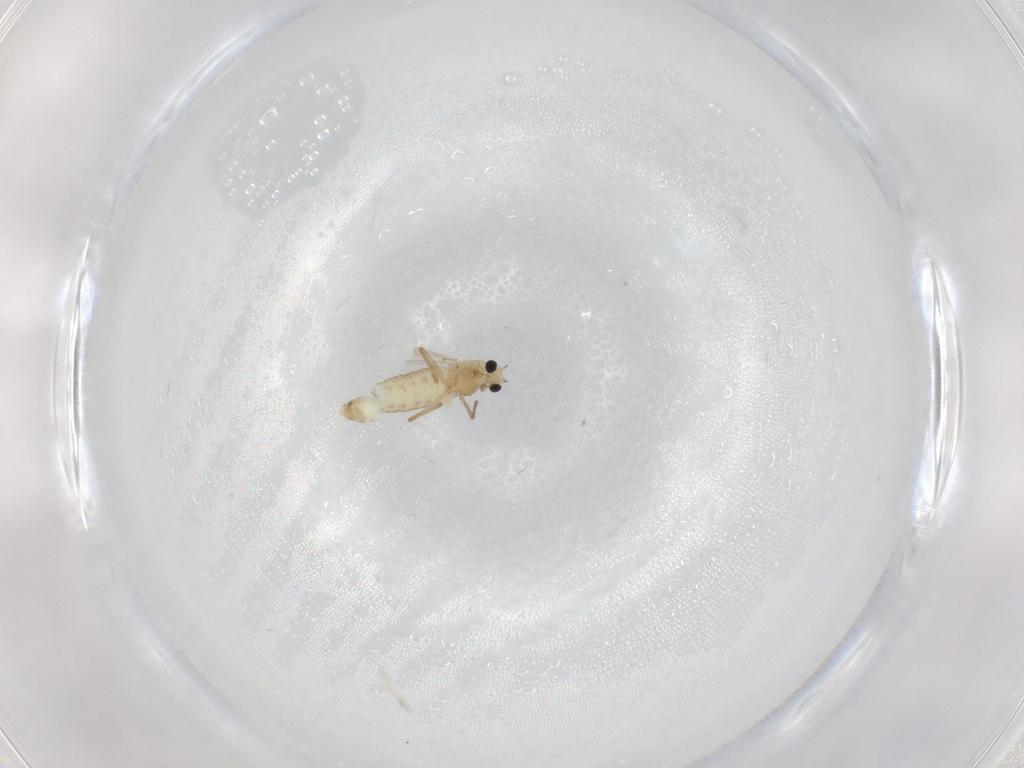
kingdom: Animalia
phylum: Arthropoda
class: Insecta
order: Diptera
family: Chironomidae
